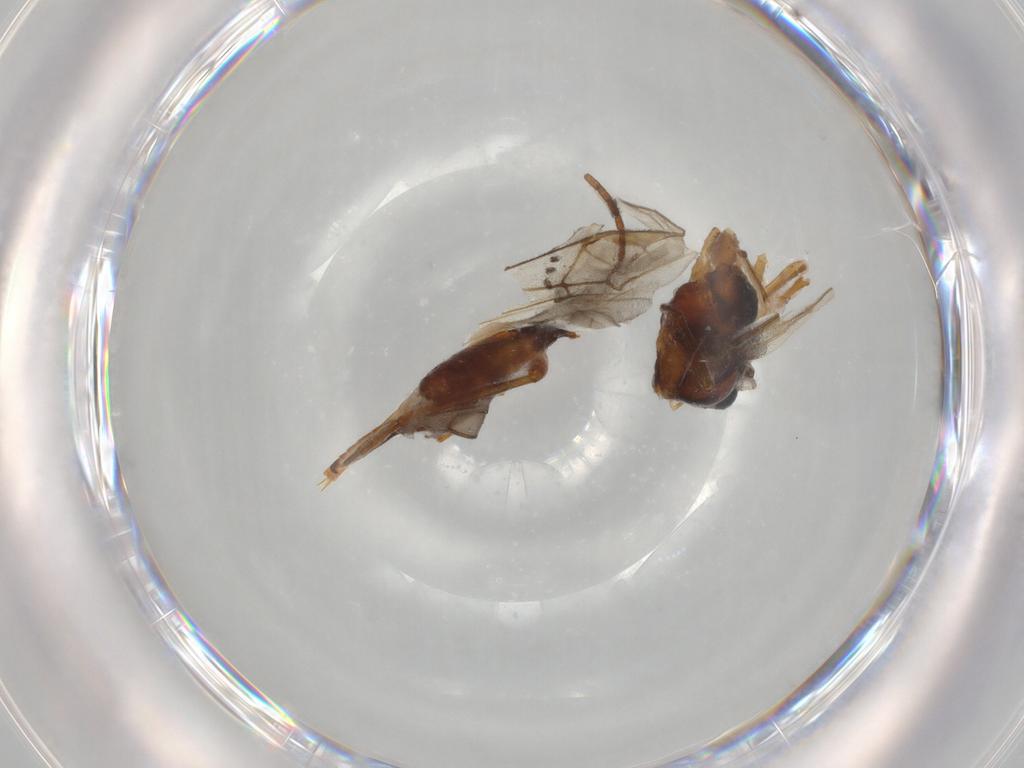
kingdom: Animalia
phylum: Arthropoda
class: Insecta
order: Hymenoptera
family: Braconidae
